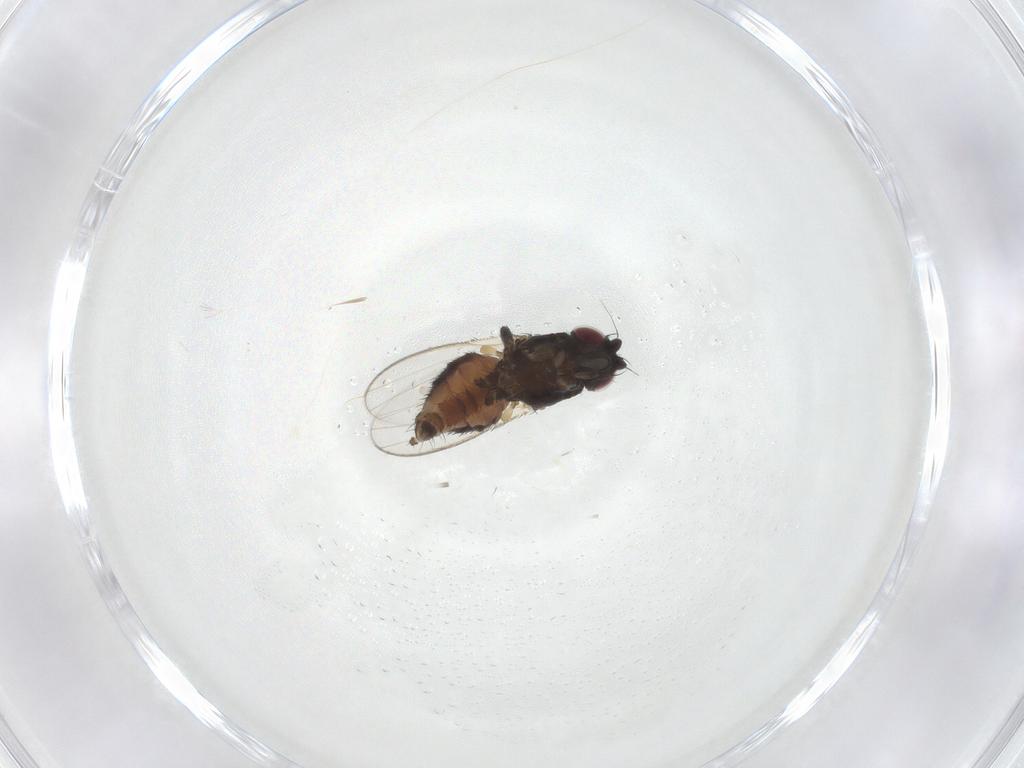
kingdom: Animalia
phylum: Arthropoda
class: Insecta
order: Diptera
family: Milichiidae
